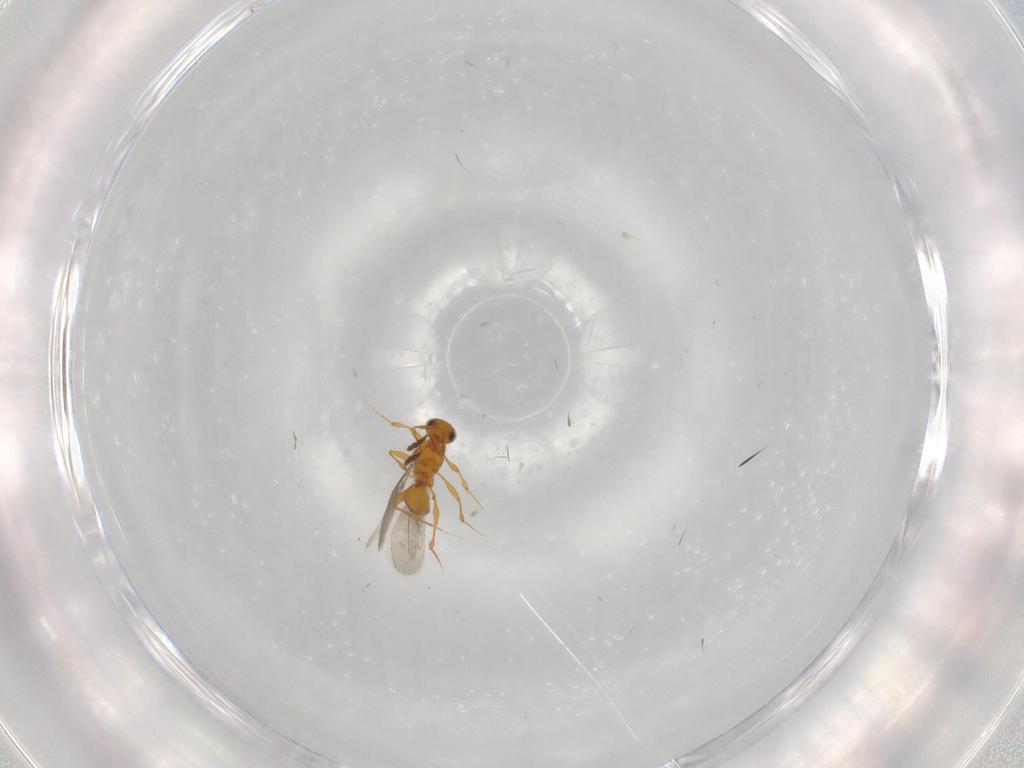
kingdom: Animalia
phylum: Arthropoda
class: Insecta
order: Hymenoptera
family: Platygastridae
